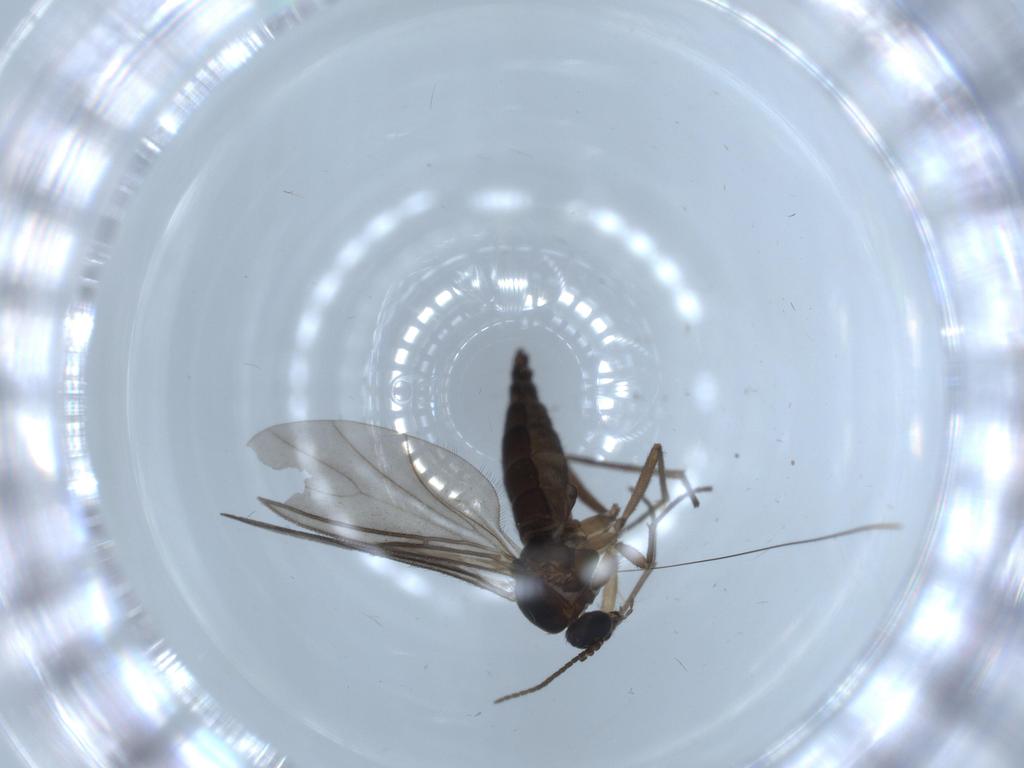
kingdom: Animalia
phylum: Arthropoda
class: Insecta
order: Diptera
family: Sciaridae
